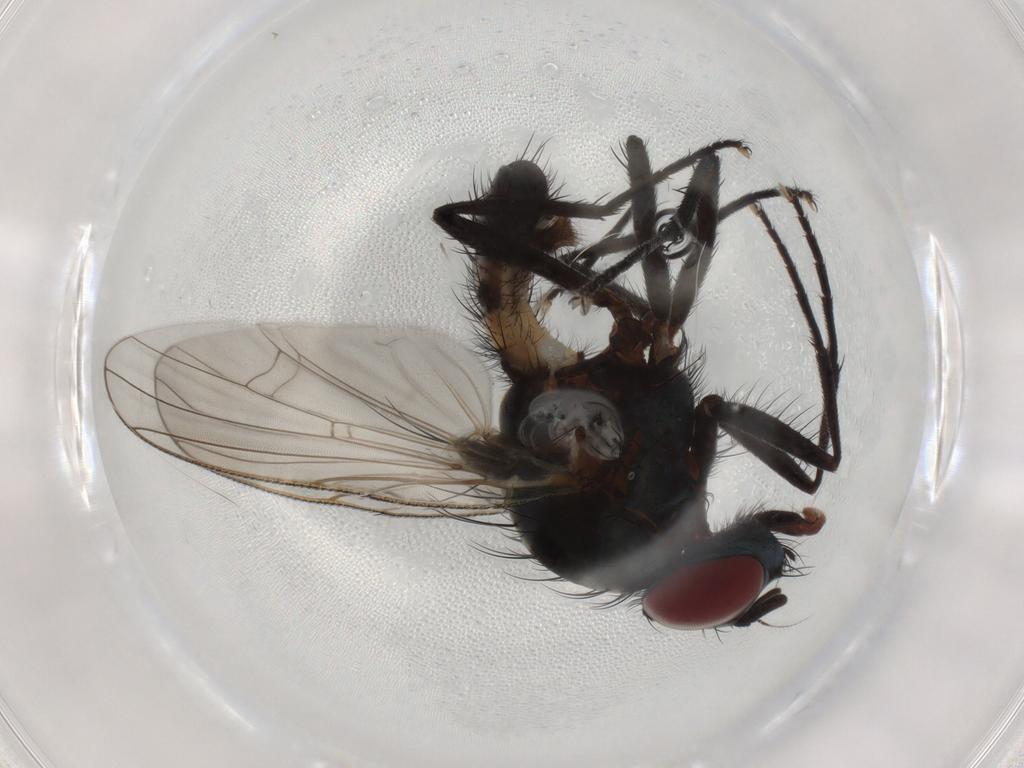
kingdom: Animalia
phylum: Arthropoda
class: Insecta
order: Diptera
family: Anthomyiidae
